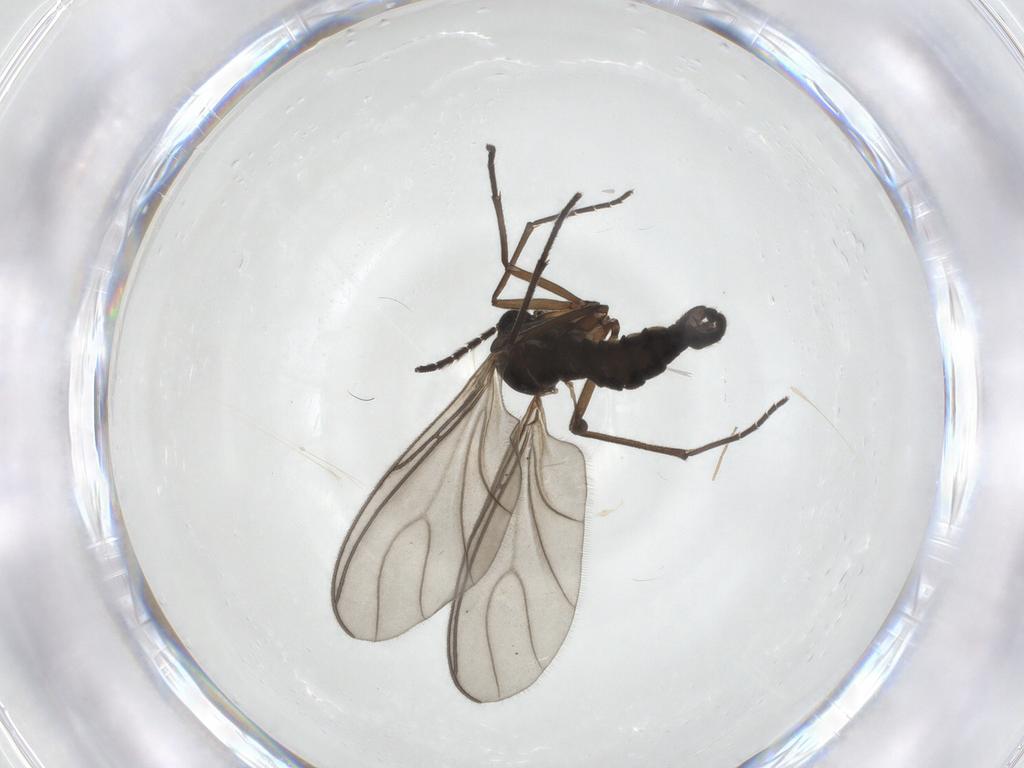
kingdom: Animalia
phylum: Arthropoda
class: Insecta
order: Diptera
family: Sciaridae
